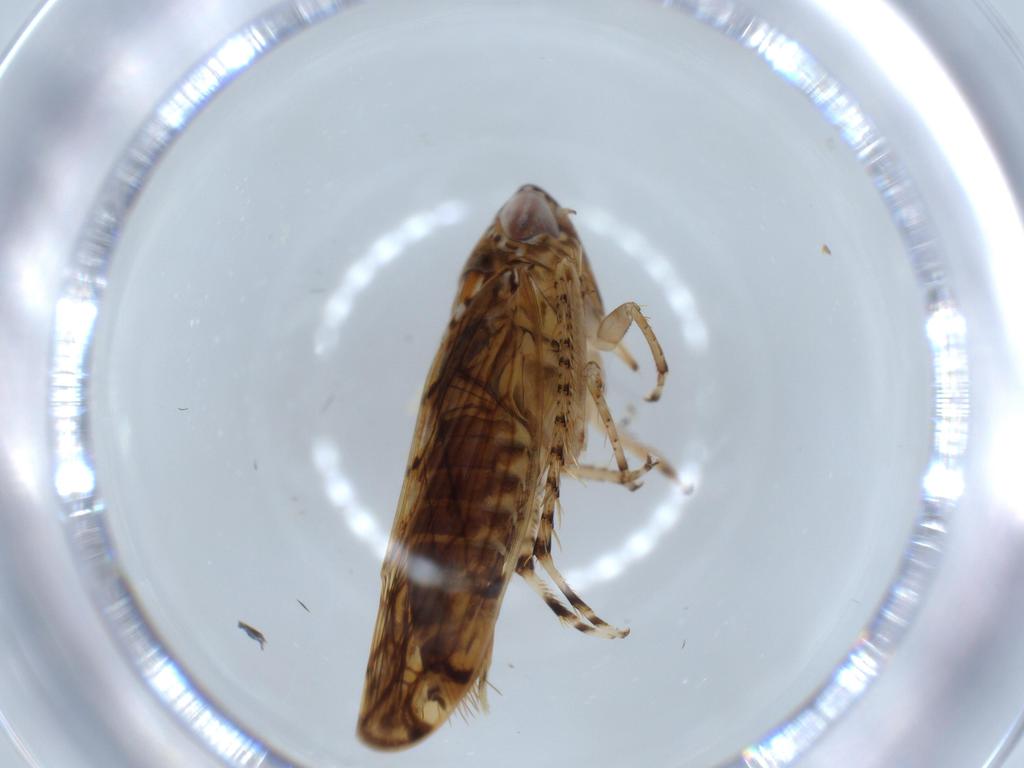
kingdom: Animalia
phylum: Arthropoda
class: Insecta
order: Hemiptera
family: Cicadellidae
